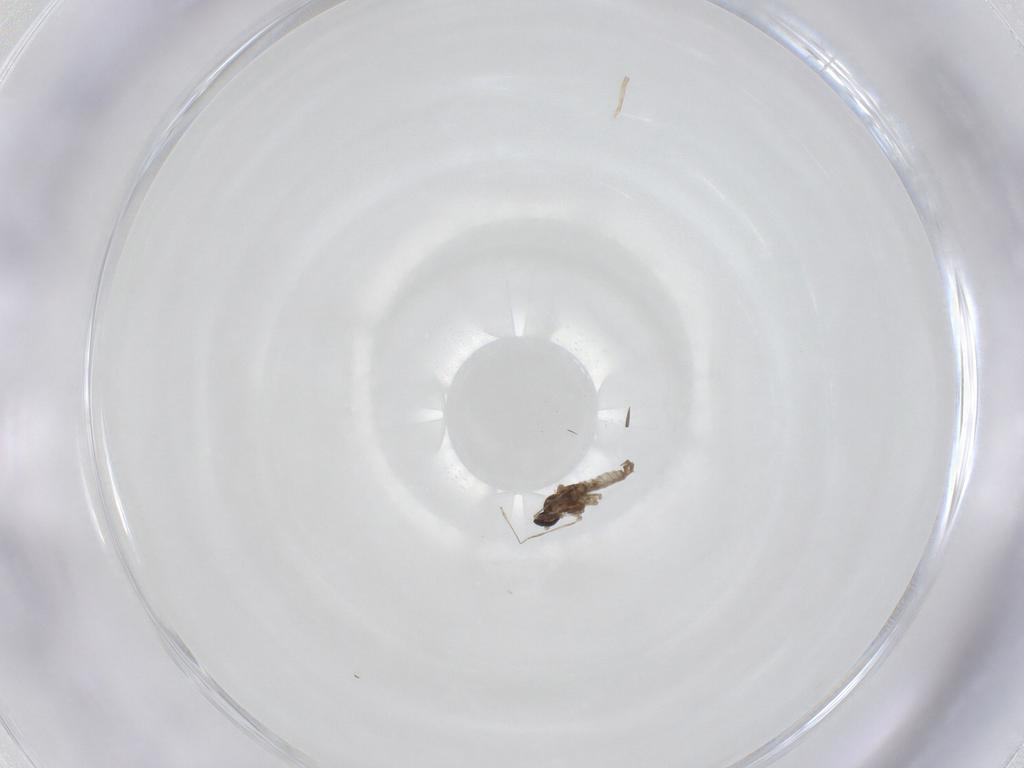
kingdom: Animalia
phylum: Arthropoda
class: Insecta
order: Diptera
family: Cecidomyiidae
